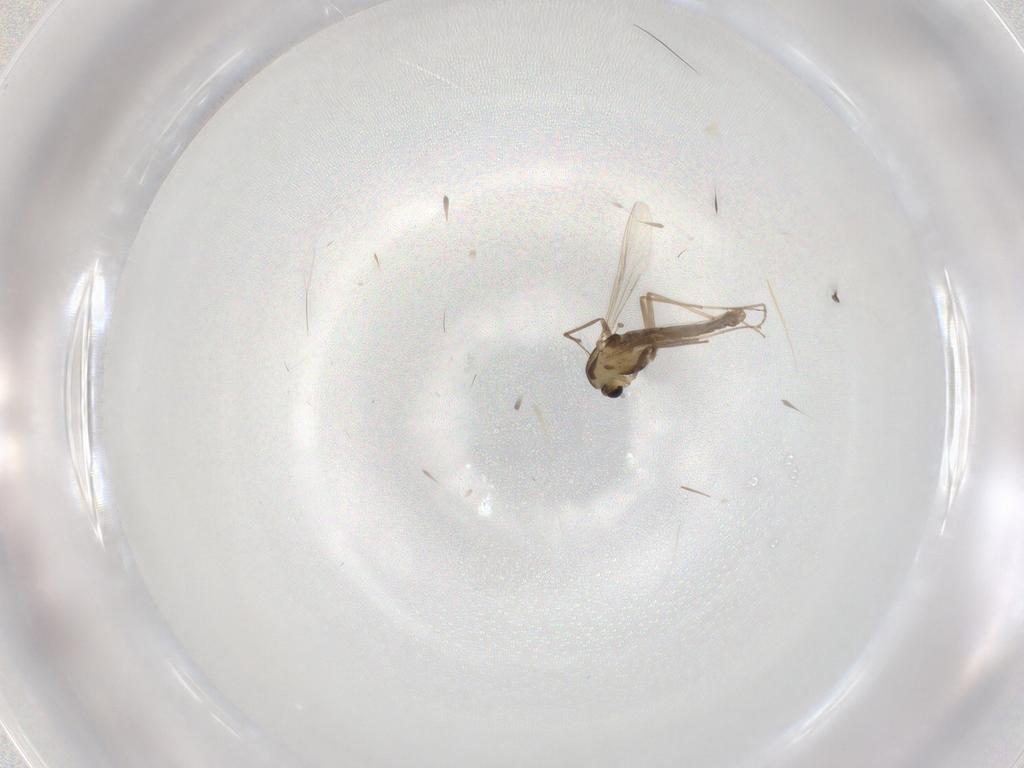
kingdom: Animalia
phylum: Arthropoda
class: Insecta
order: Diptera
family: Chironomidae
